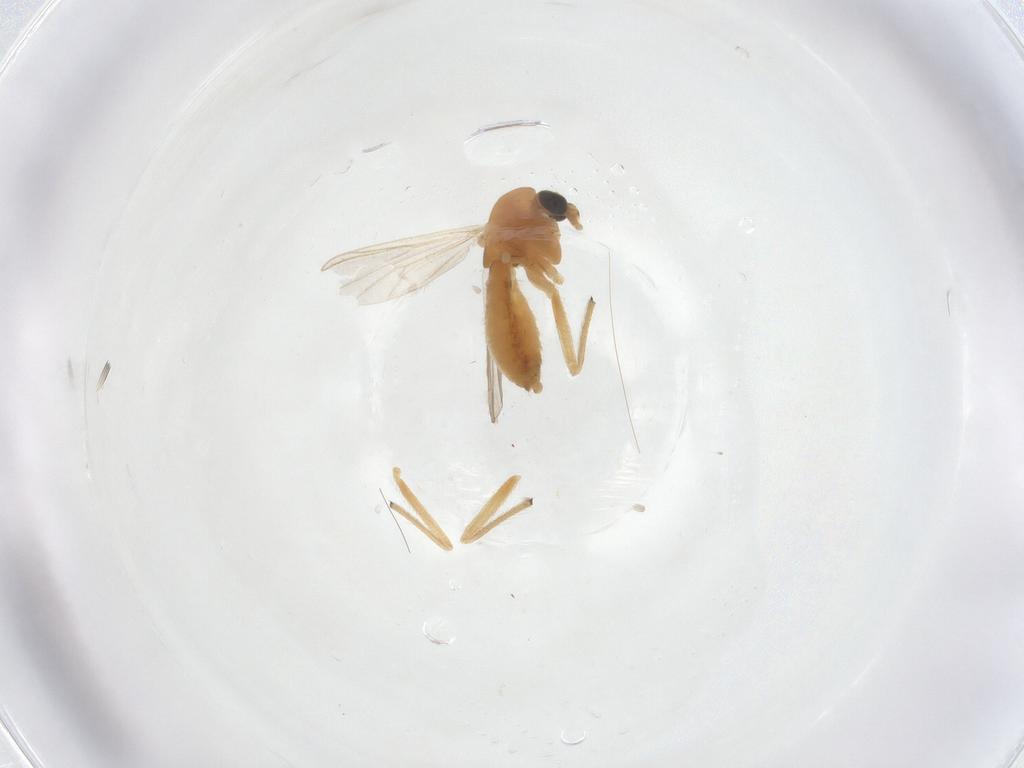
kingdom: Animalia
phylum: Arthropoda
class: Insecta
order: Diptera
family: Chironomidae
